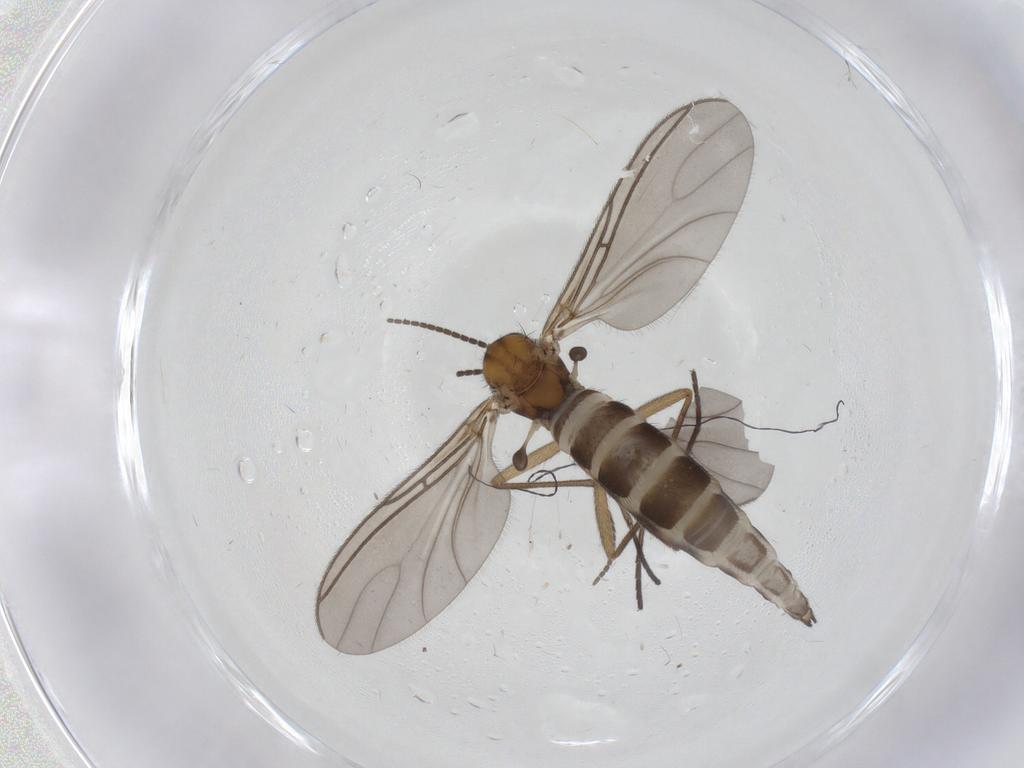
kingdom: Animalia
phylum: Arthropoda
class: Insecta
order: Diptera
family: Sciaridae
